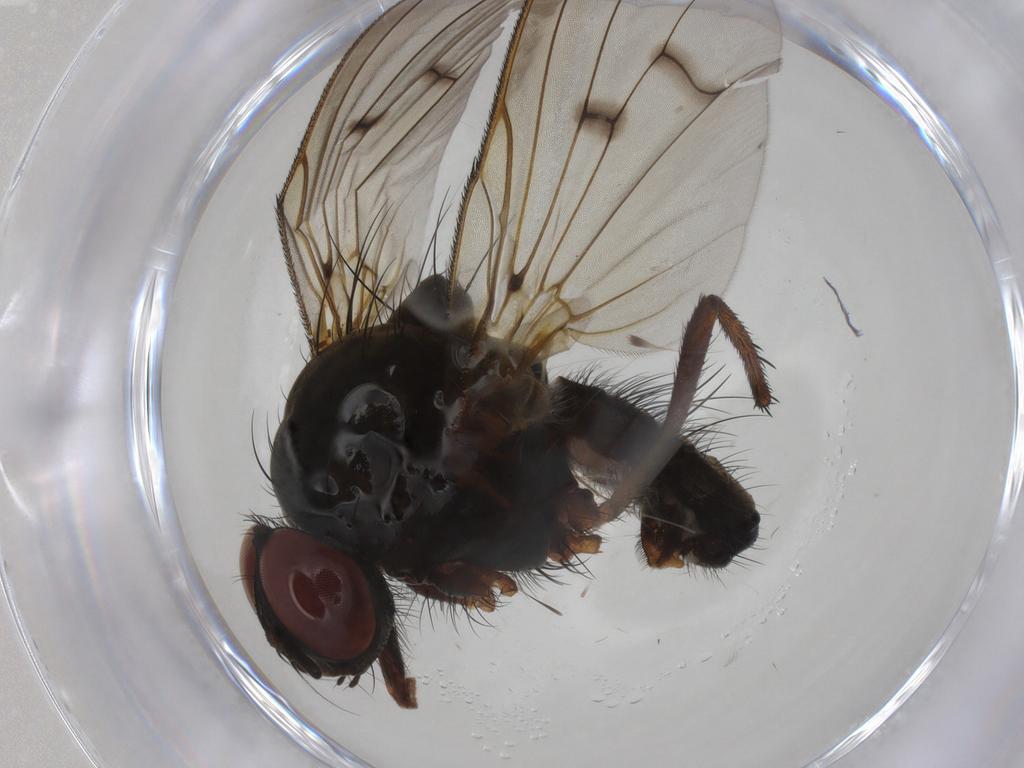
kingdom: Animalia
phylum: Arthropoda
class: Insecta
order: Diptera
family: Anthomyiidae
